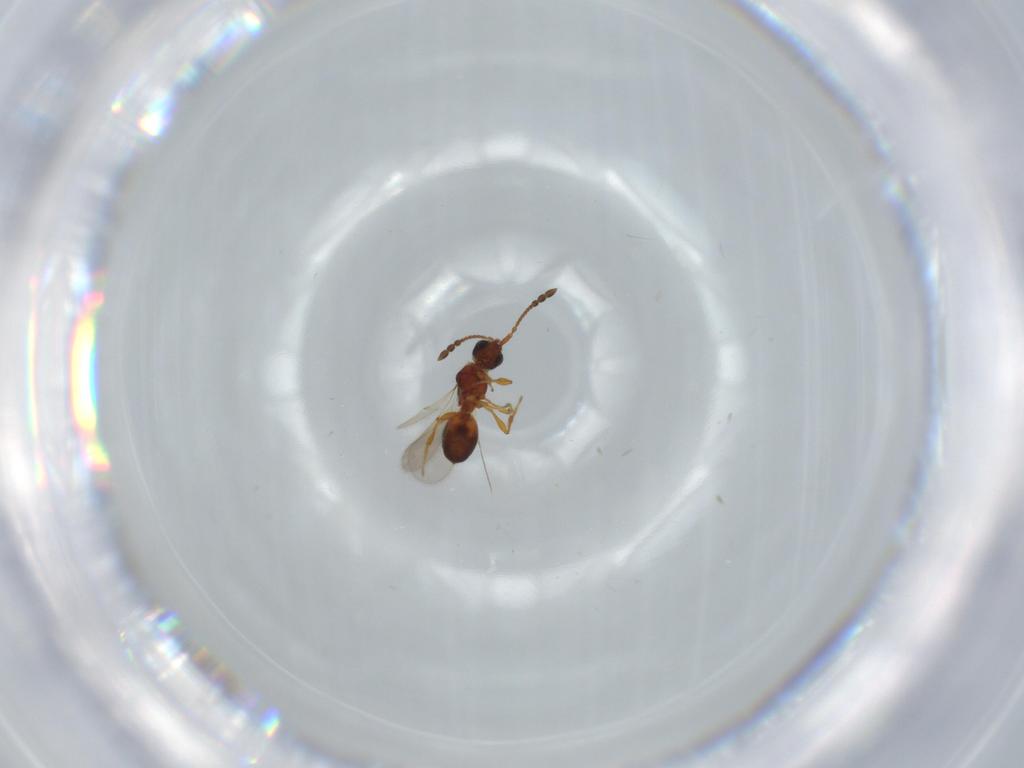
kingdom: Animalia
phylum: Arthropoda
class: Insecta
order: Hymenoptera
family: Diapriidae
